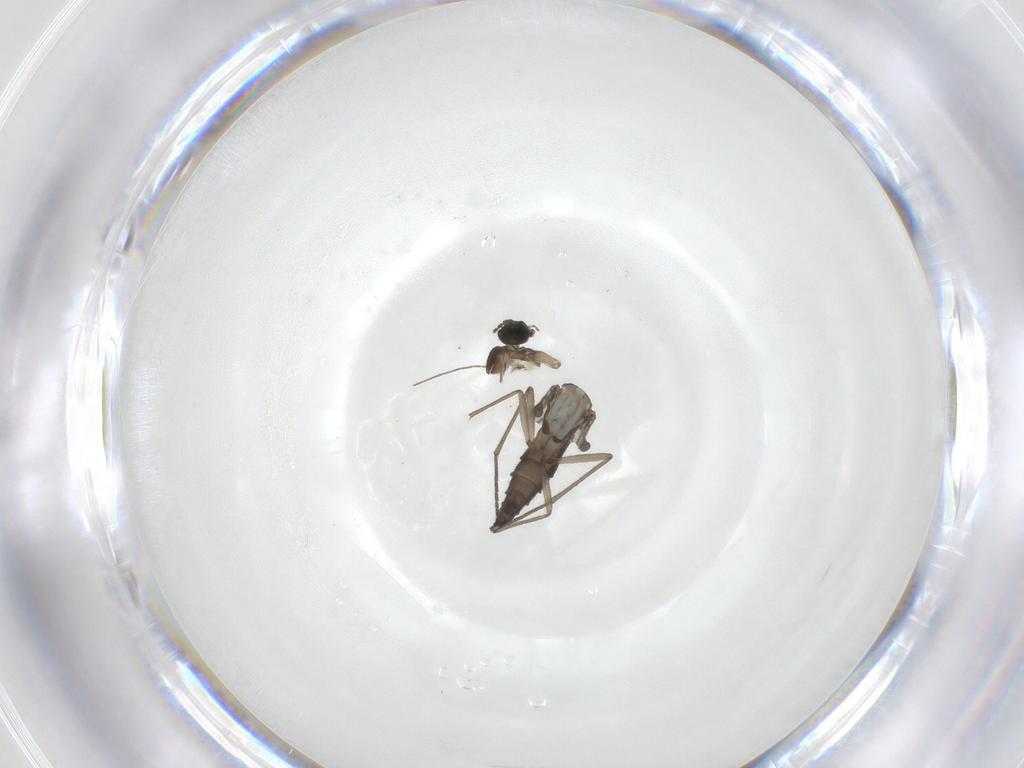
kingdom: Animalia
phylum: Arthropoda
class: Insecta
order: Diptera
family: Sciaridae
